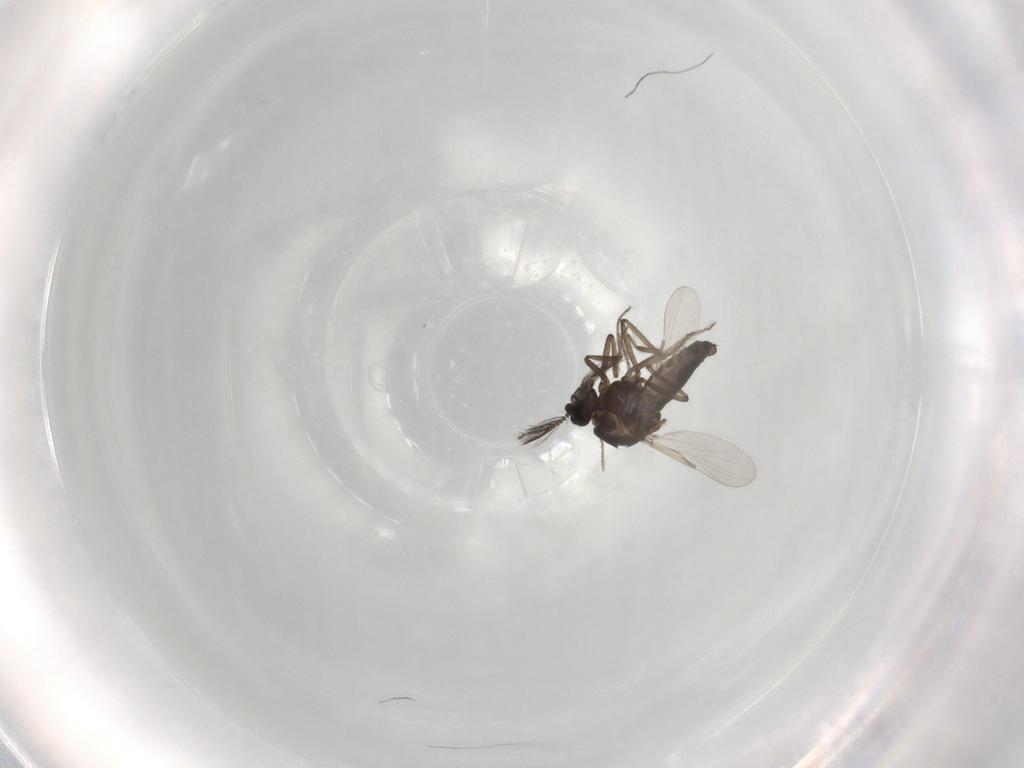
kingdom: Animalia
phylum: Arthropoda
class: Insecta
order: Diptera
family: Ceratopogonidae
